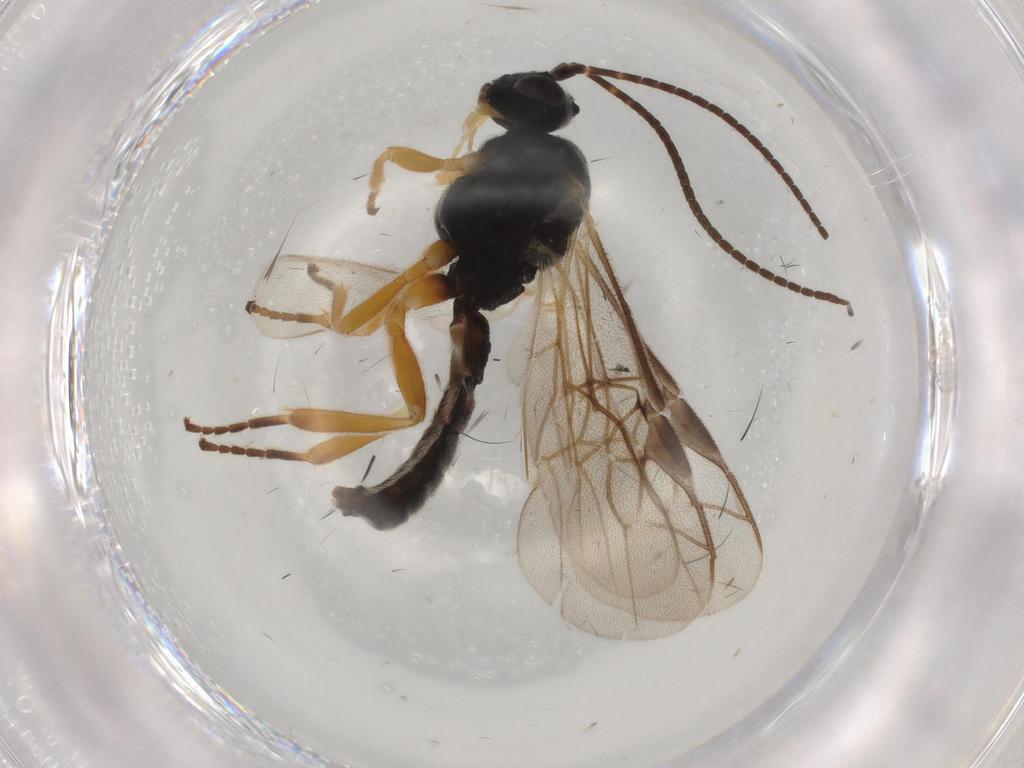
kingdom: Animalia
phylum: Arthropoda
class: Insecta
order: Hymenoptera
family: Braconidae
